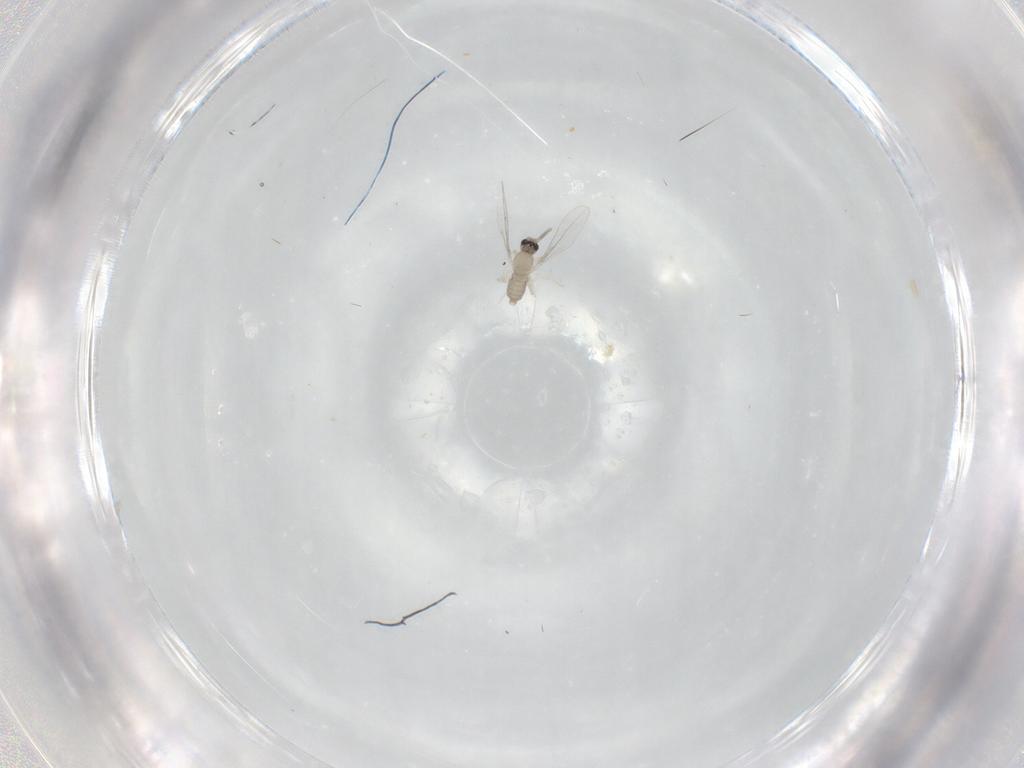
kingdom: Animalia
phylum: Arthropoda
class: Insecta
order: Diptera
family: Cecidomyiidae
